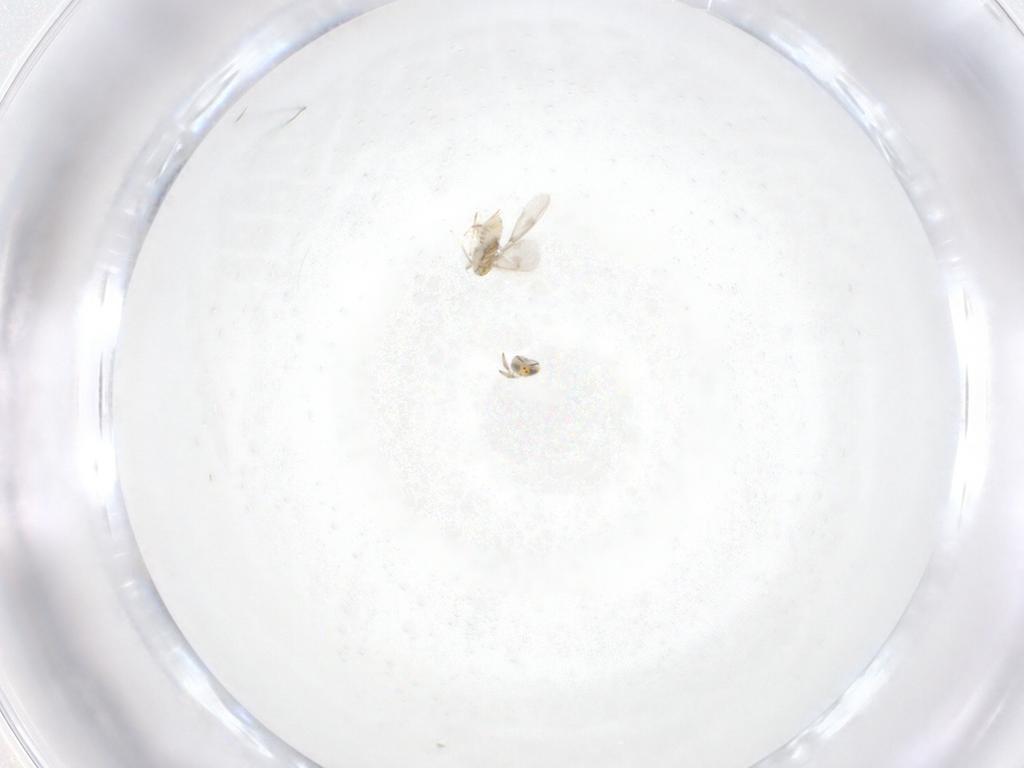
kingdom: Animalia
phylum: Arthropoda
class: Insecta
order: Hymenoptera
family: Aphelinidae
